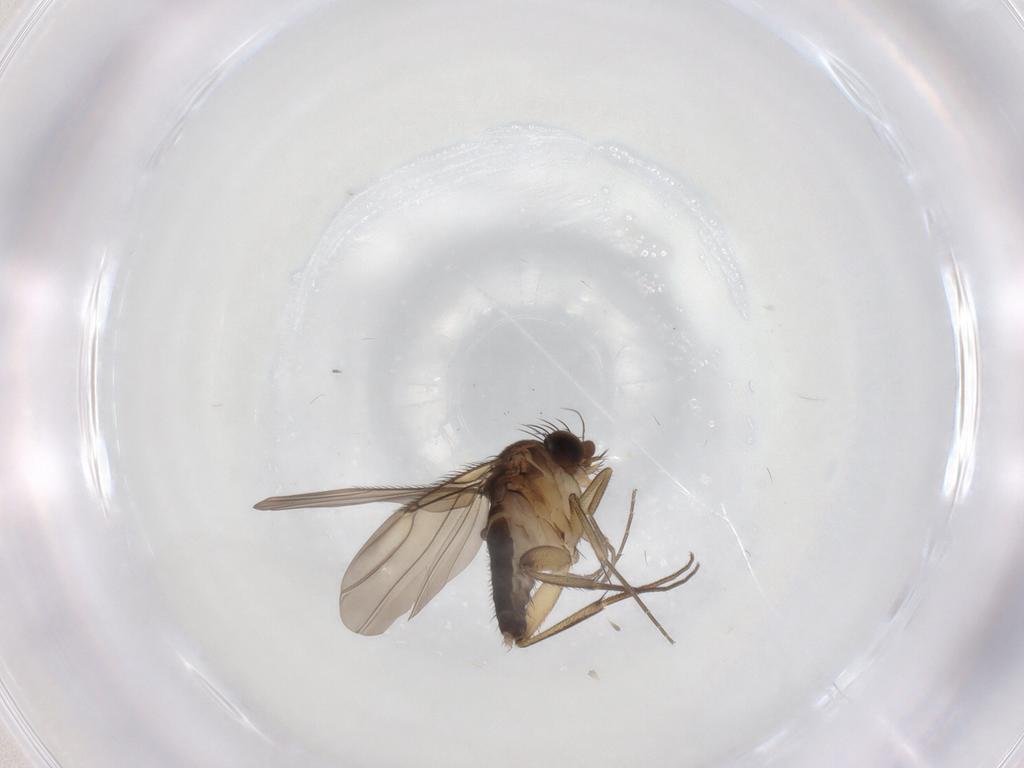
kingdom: Animalia
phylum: Arthropoda
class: Insecta
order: Diptera
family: Phoridae
